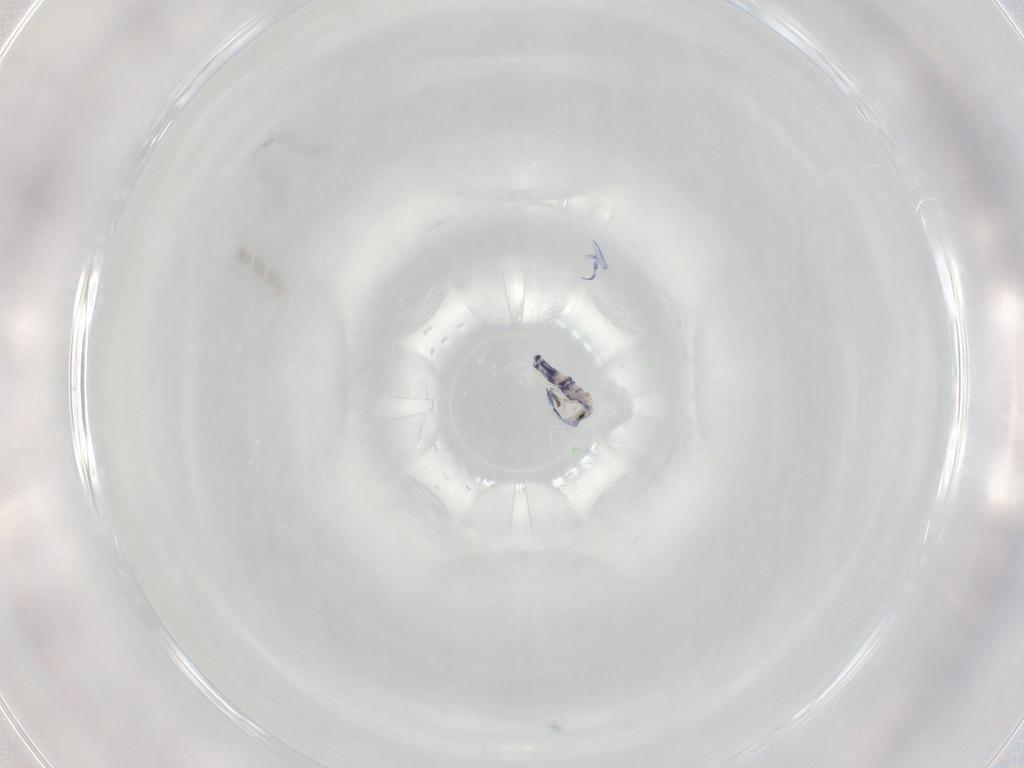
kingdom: Animalia
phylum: Arthropoda
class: Collembola
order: Entomobryomorpha
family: Entomobryidae
